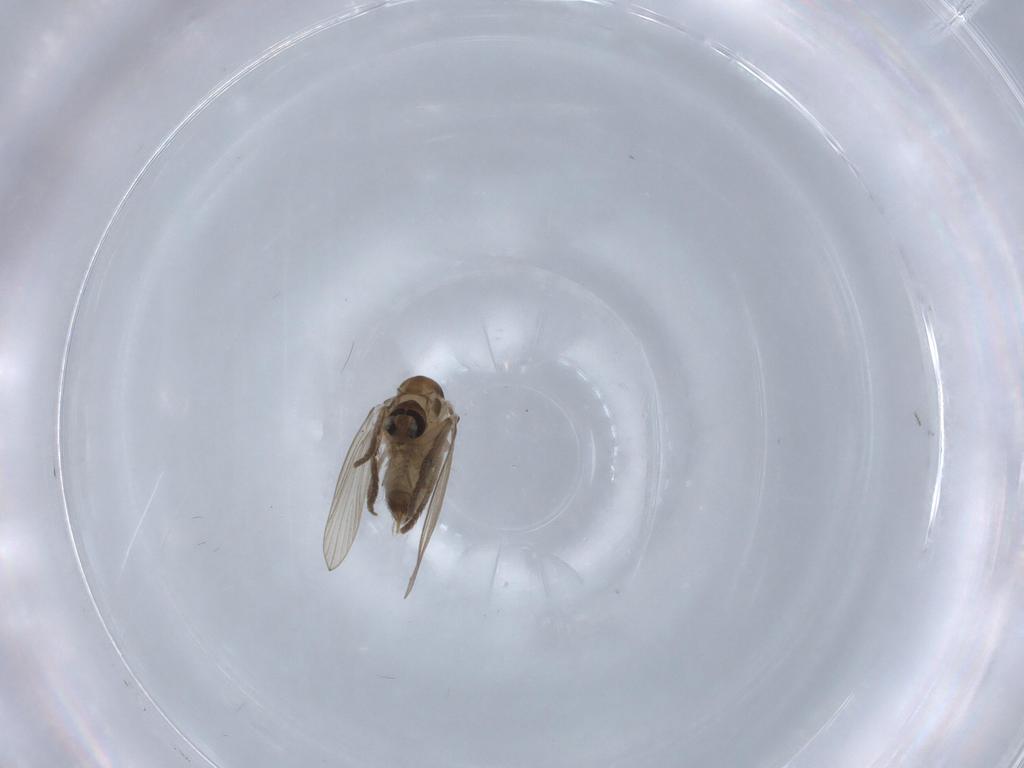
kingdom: Animalia
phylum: Arthropoda
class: Insecta
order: Diptera
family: Psychodidae
